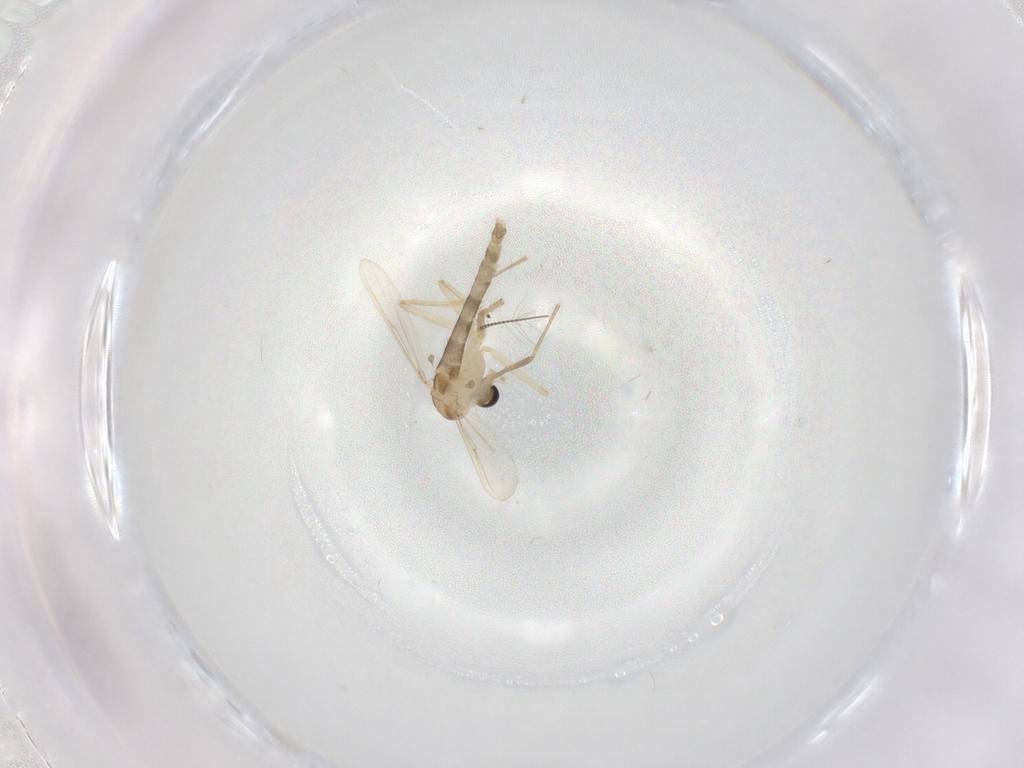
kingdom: Animalia
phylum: Arthropoda
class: Insecta
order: Diptera
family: Chironomidae
